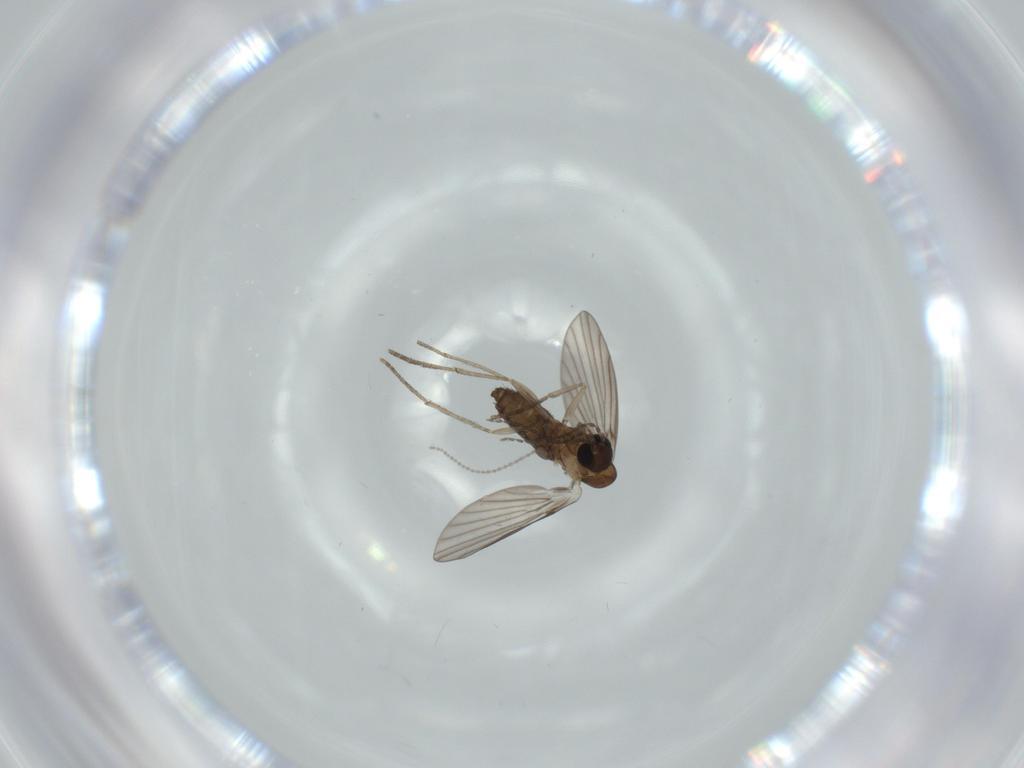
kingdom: Animalia
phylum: Arthropoda
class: Insecta
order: Diptera
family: Psychodidae
